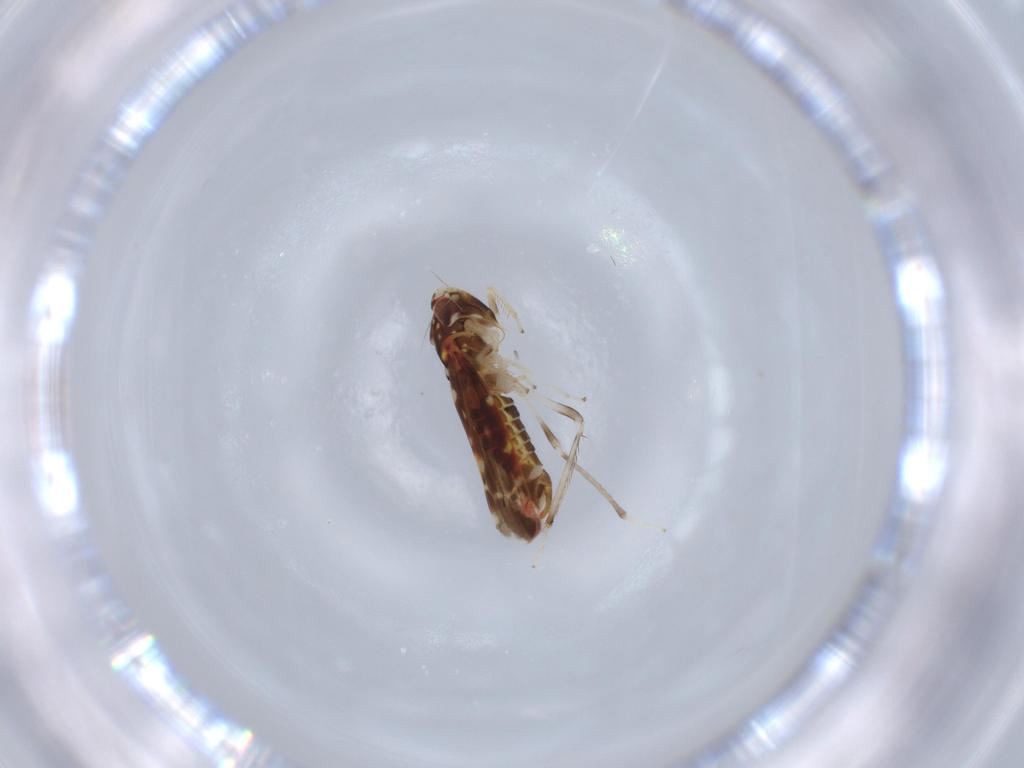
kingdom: Animalia
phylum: Arthropoda
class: Insecta
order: Hemiptera
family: Cicadellidae
